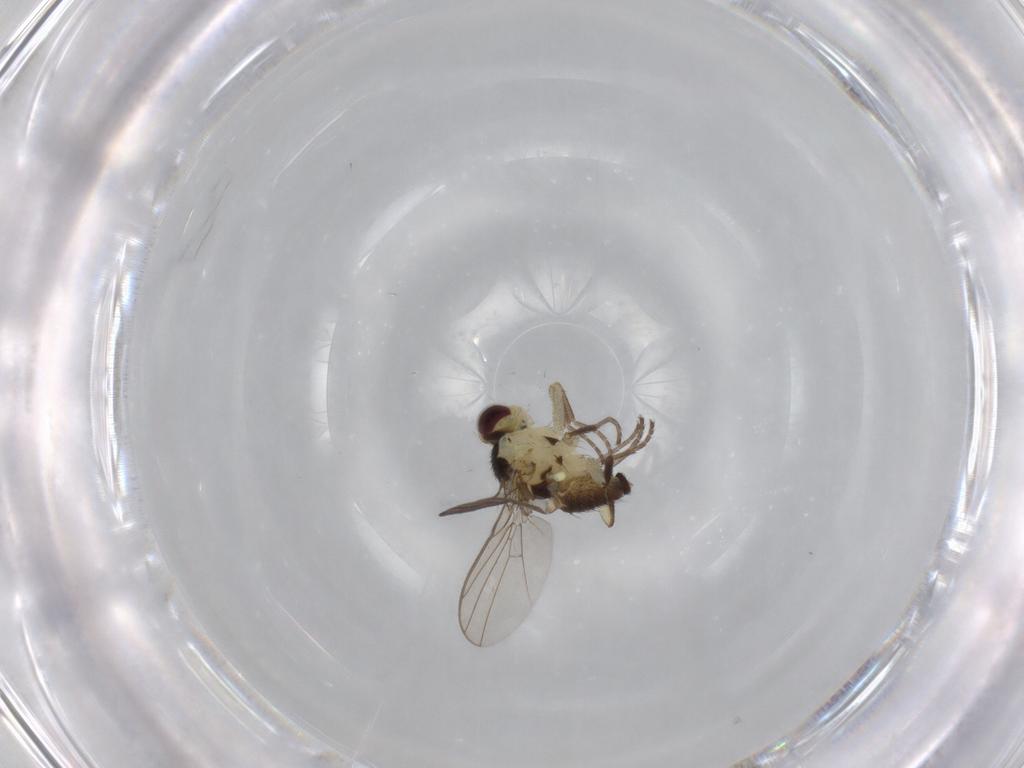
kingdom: Animalia
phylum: Arthropoda
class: Insecta
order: Diptera
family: Agromyzidae
